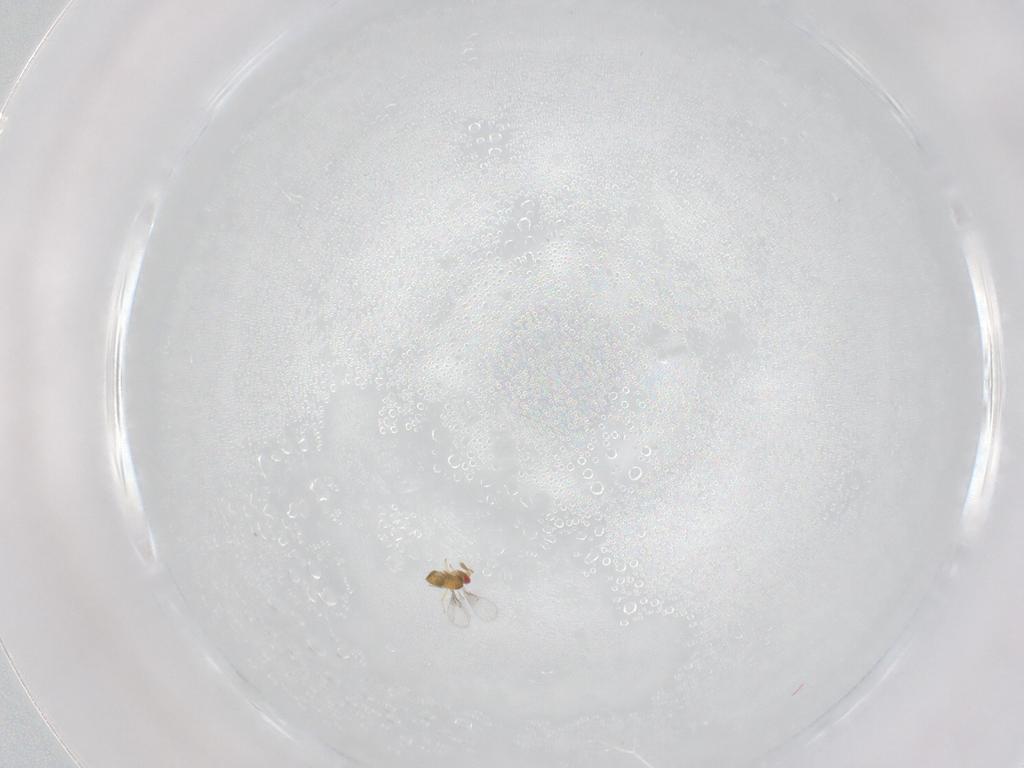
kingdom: Animalia
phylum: Arthropoda
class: Insecta
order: Hymenoptera
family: Trichogrammatidae
